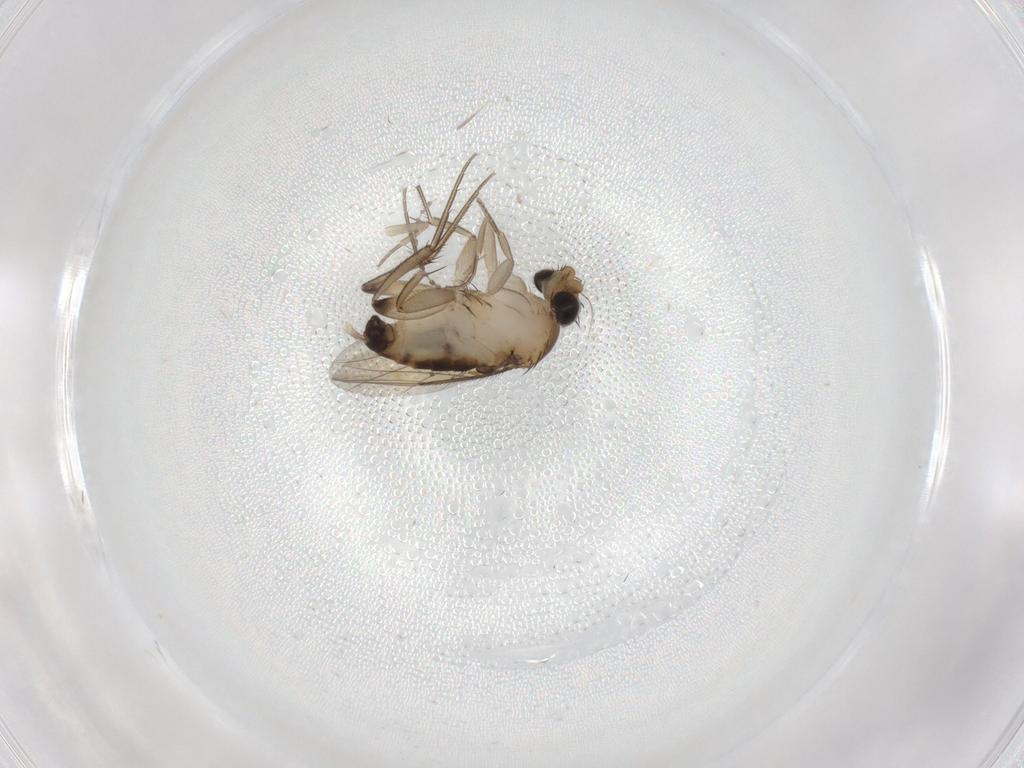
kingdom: Animalia
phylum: Arthropoda
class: Insecta
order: Diptera
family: Phoridae
